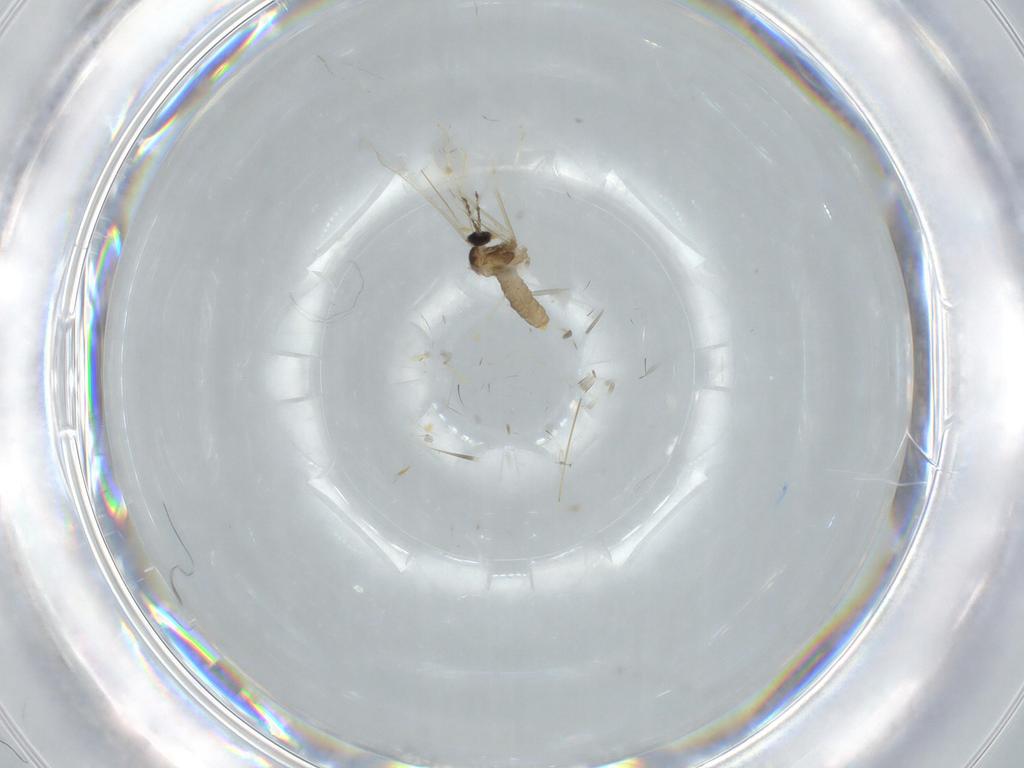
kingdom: Animalia
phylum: Arthropoda
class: Insecta
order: Diptera
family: Cecidomyiidae
